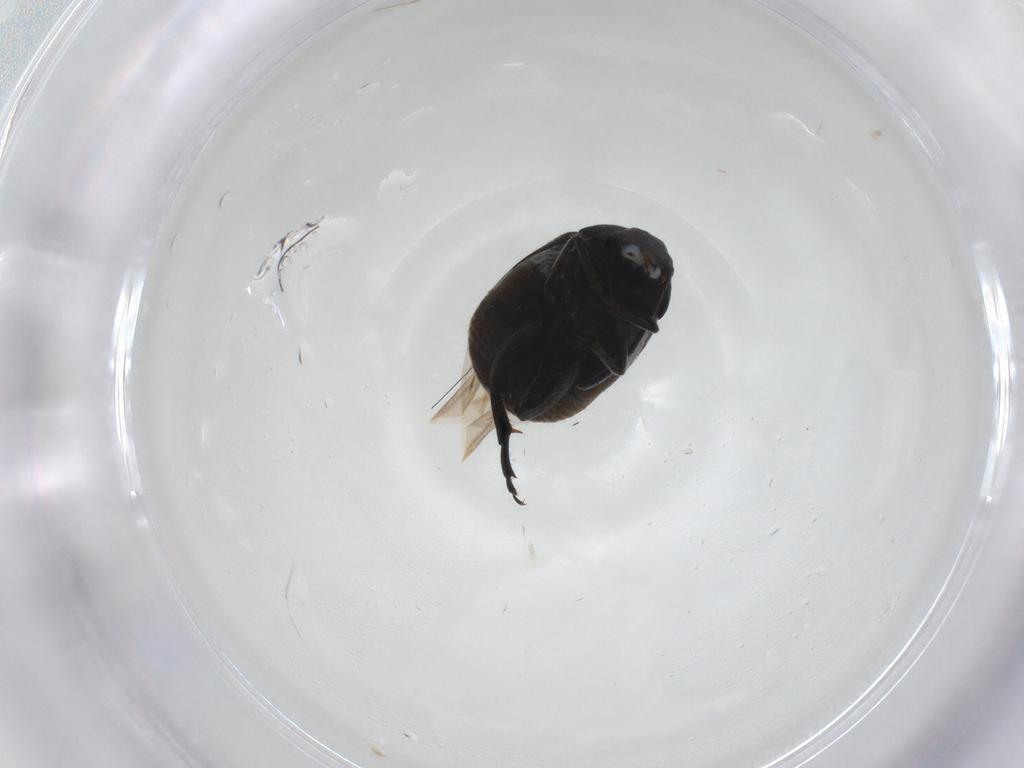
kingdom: Animalia
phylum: Arthropoda
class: Insecta
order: Coleoptera
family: Chrysomelidae
